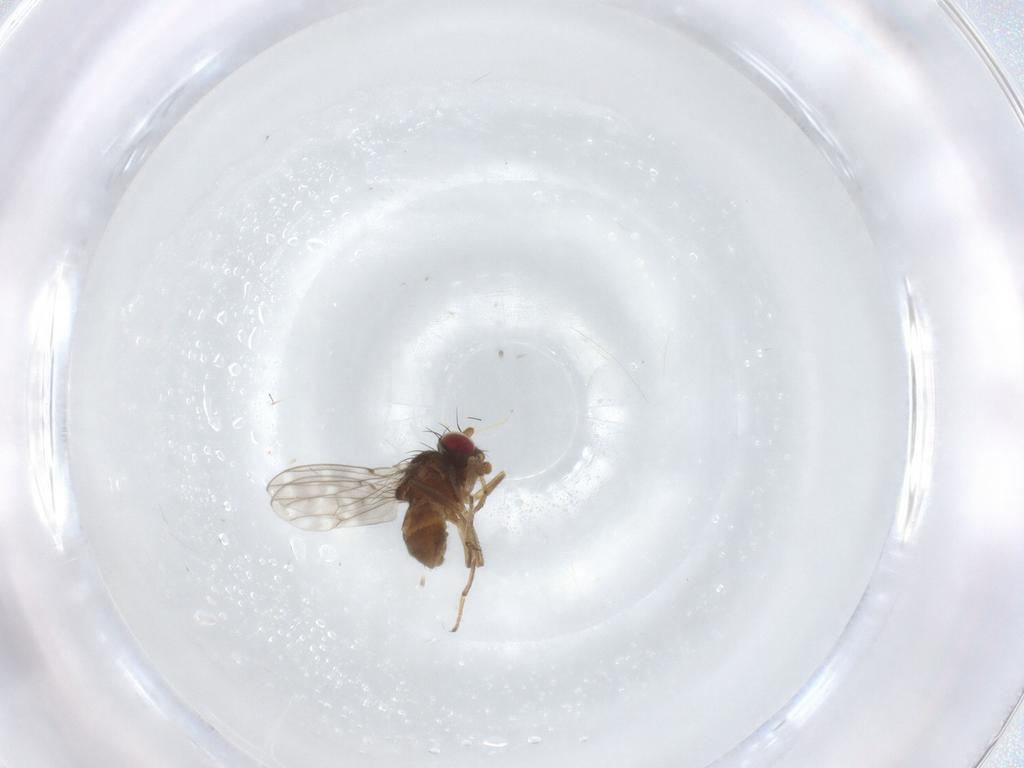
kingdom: Animalia
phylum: Arthropoda
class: Insecta
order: Diptera
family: Ephydridae
